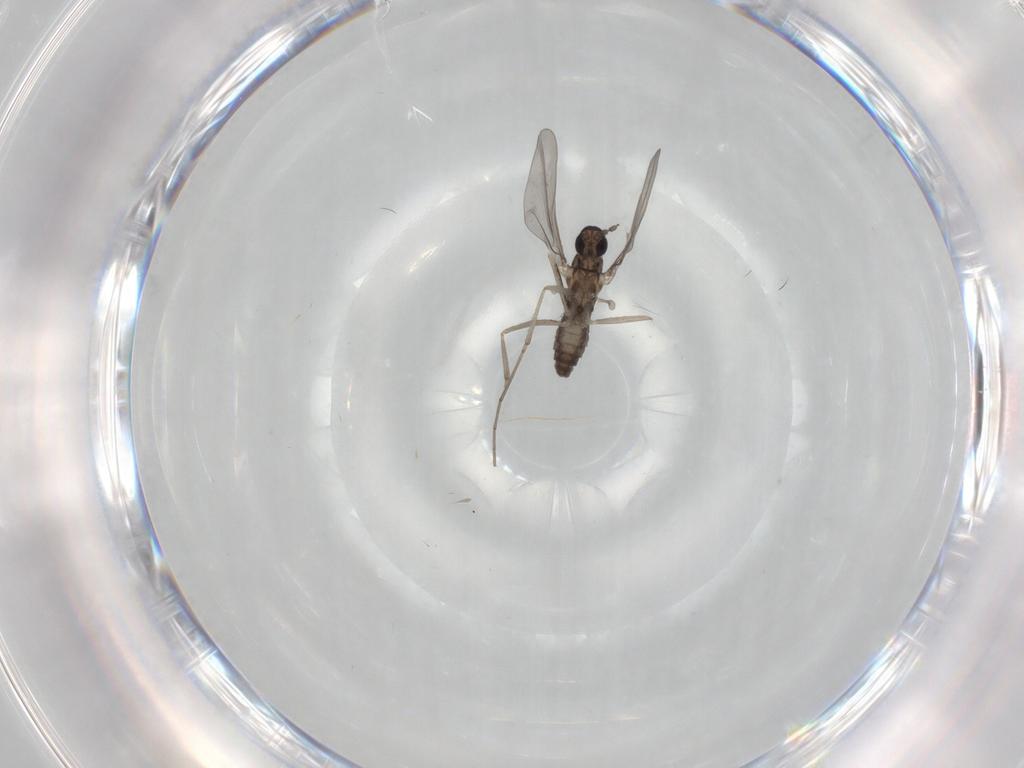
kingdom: Animalia
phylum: Arthropoda
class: Insecta
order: Diptera
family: Cecidomyiidae
